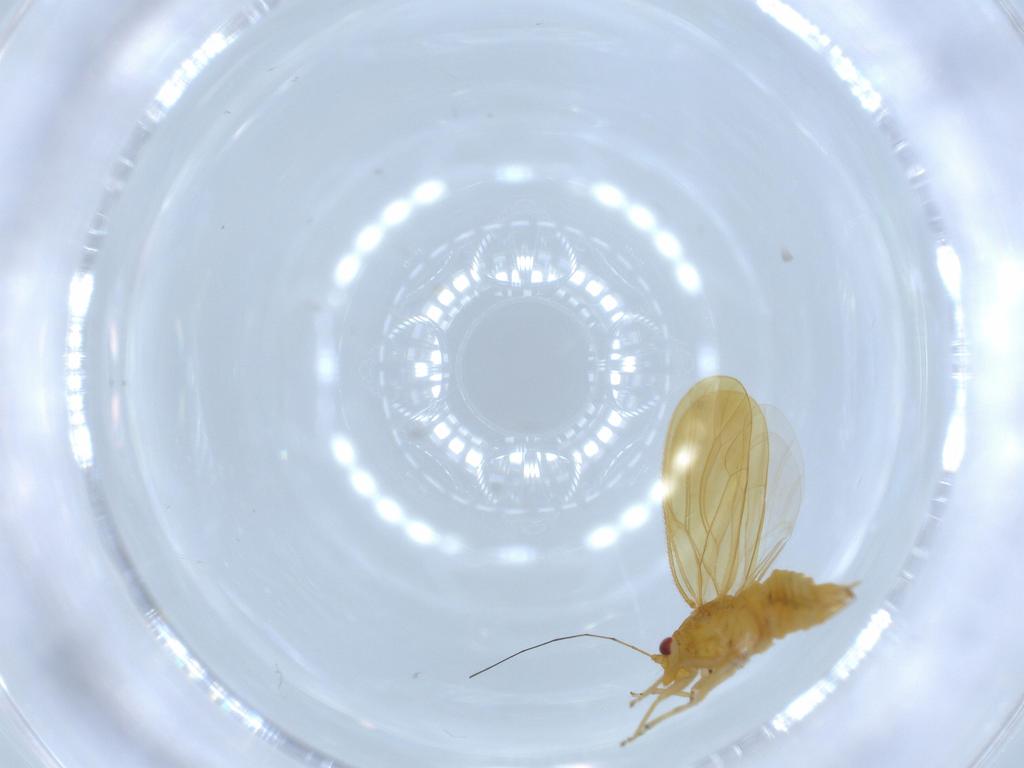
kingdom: Animalia
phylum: Arthropoda
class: Insecta
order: Hemiptera
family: Psyllidae
